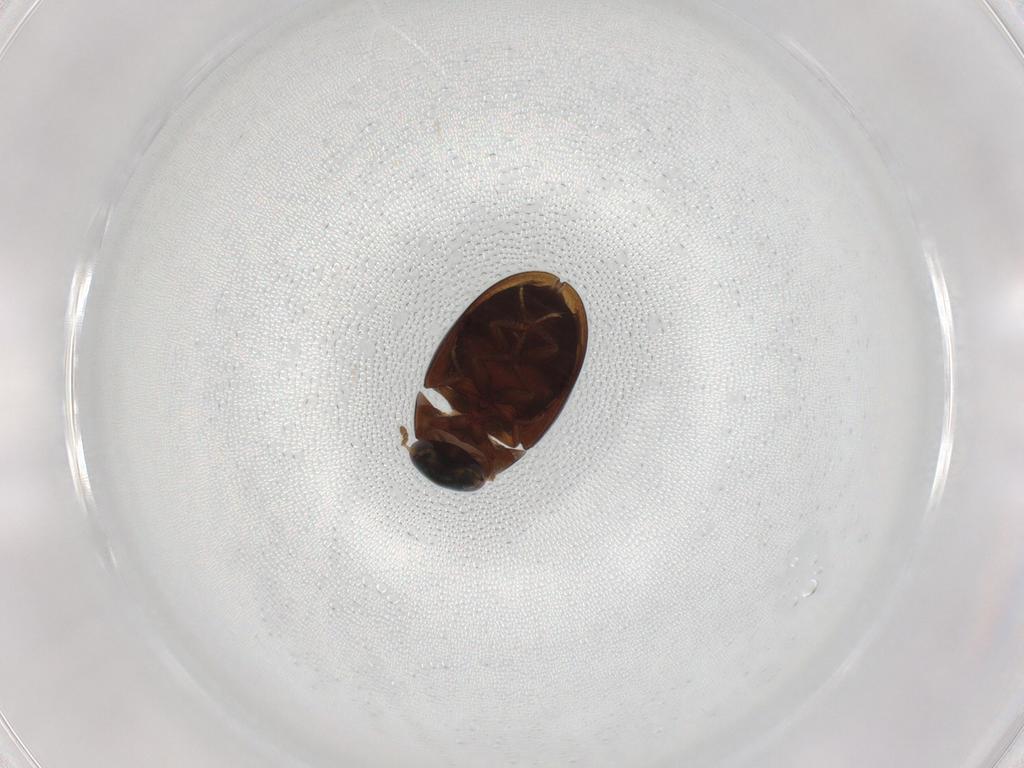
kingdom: Animalia
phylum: Arthropoda
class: Insecta
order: Coleoptera
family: Hydrophilidae
